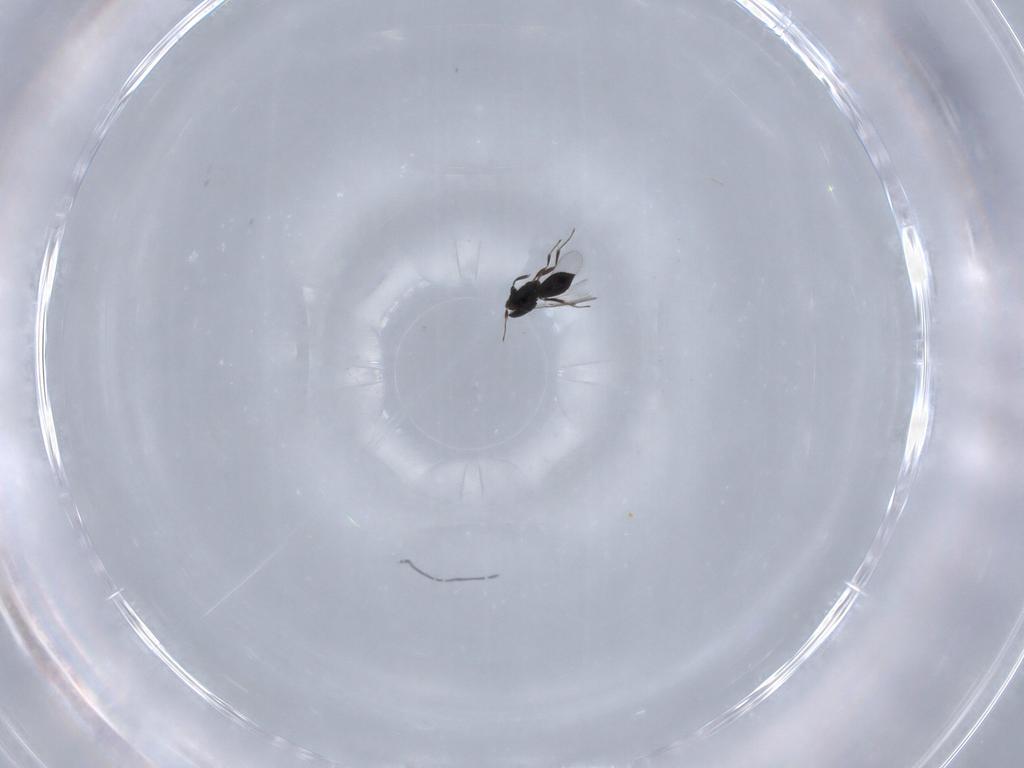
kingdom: Animalia
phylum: Arthropoda
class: Insecta
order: Hymenoptera
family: Scelionidae
